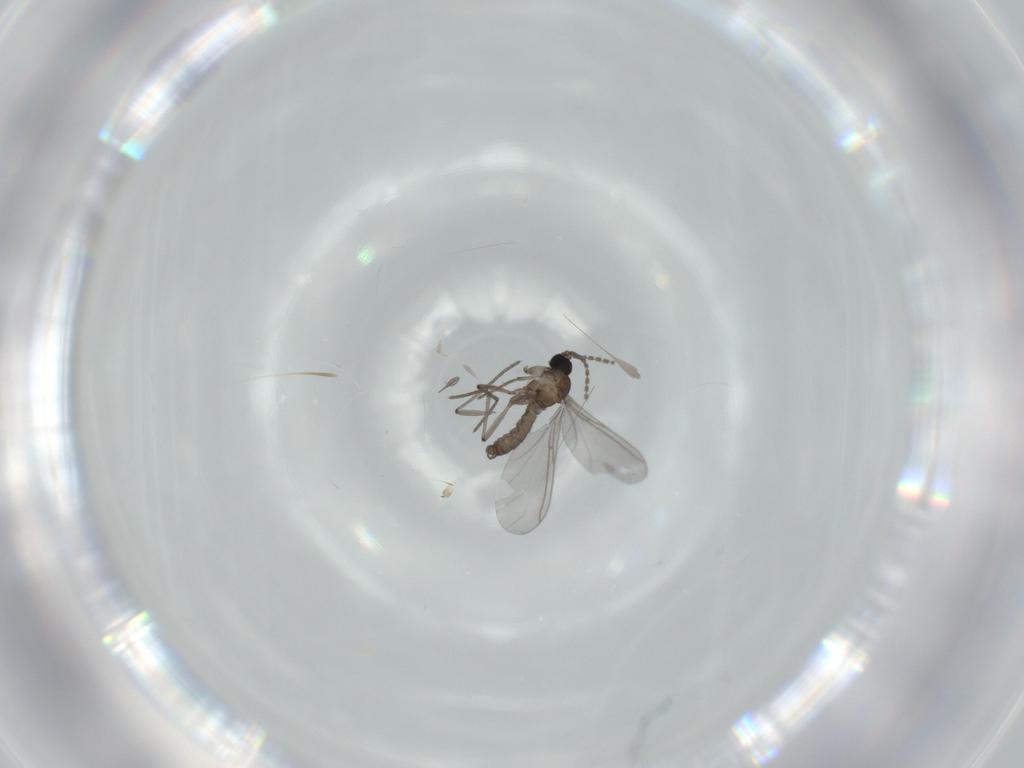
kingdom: Animalia
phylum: Arthropoda
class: Insecta
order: Diptera
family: Sciaridae
